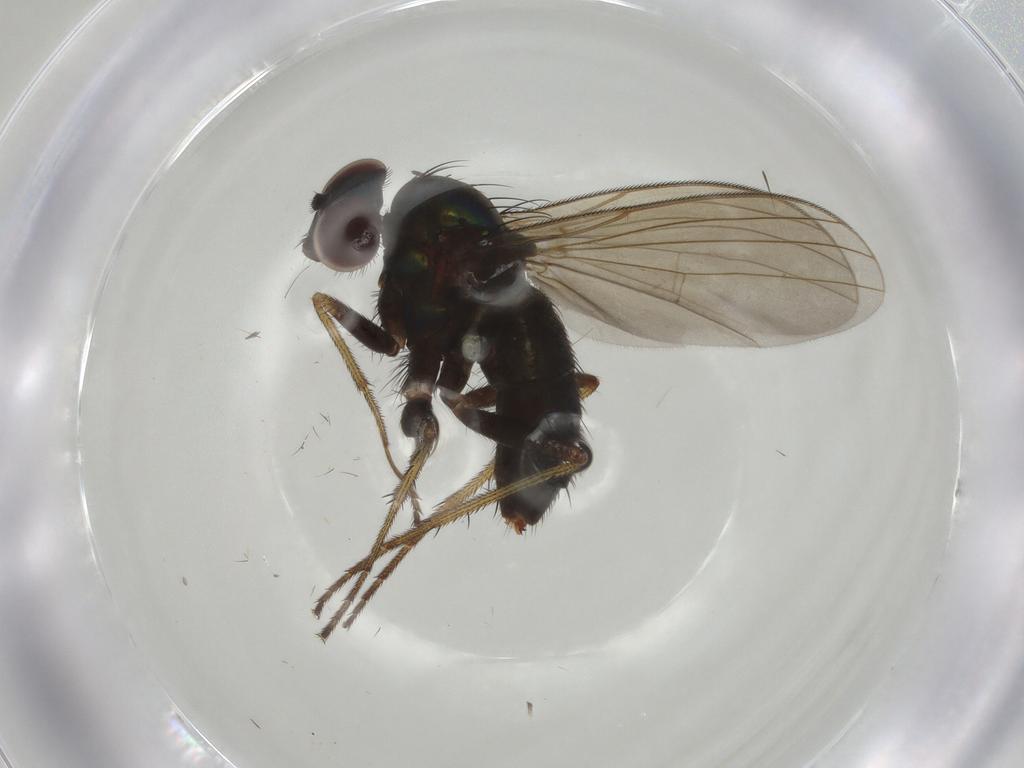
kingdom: Animalia
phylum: Arthropoda
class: Insecta
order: Diptera
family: Dolichopodidae
